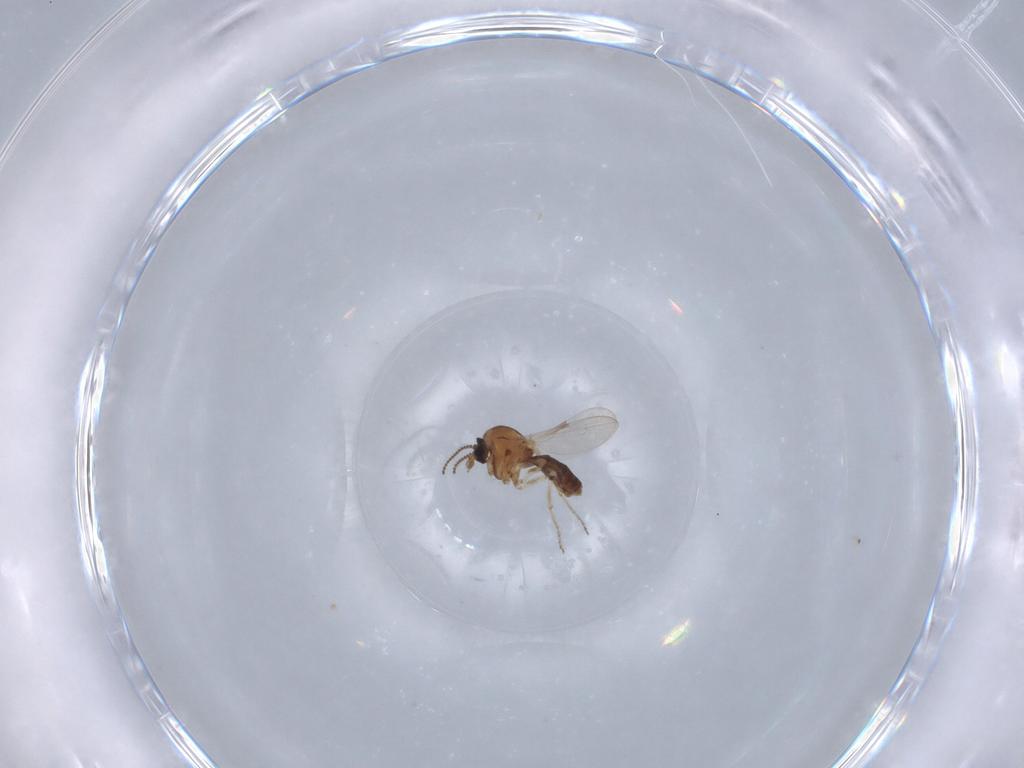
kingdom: Animalia
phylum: Arthropoda
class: Insecta
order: Diptera
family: Ceratopogonidae
